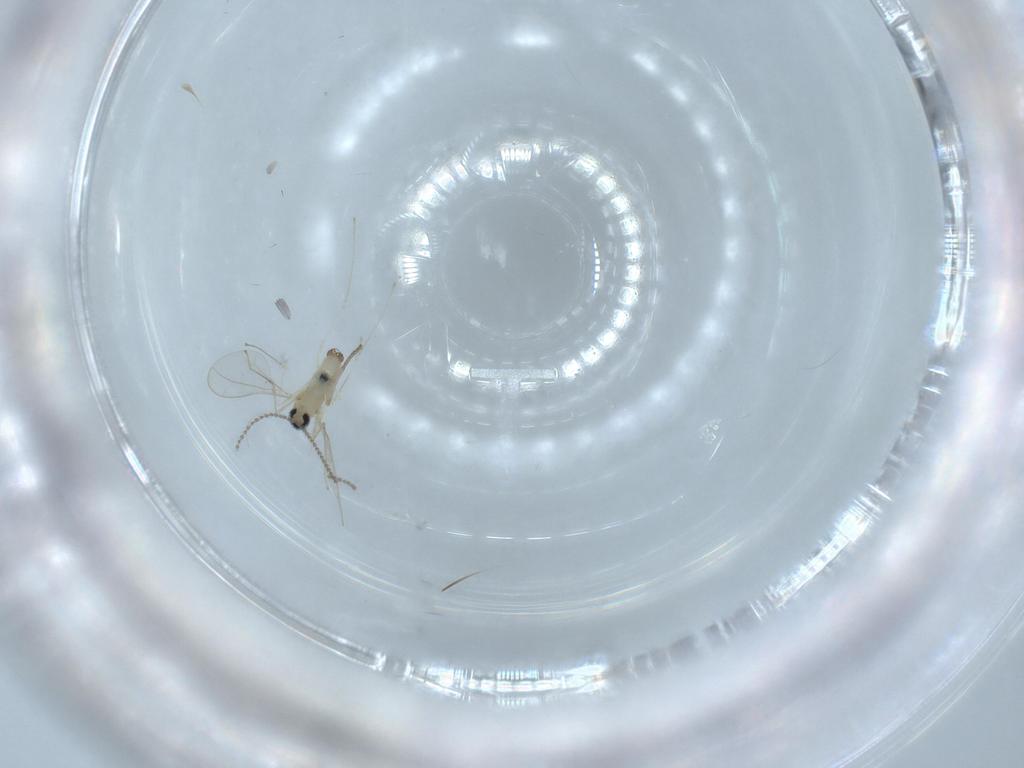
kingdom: Animalia
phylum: Arthropoda
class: Insecta
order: Diptera
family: Cecidomyiidae
